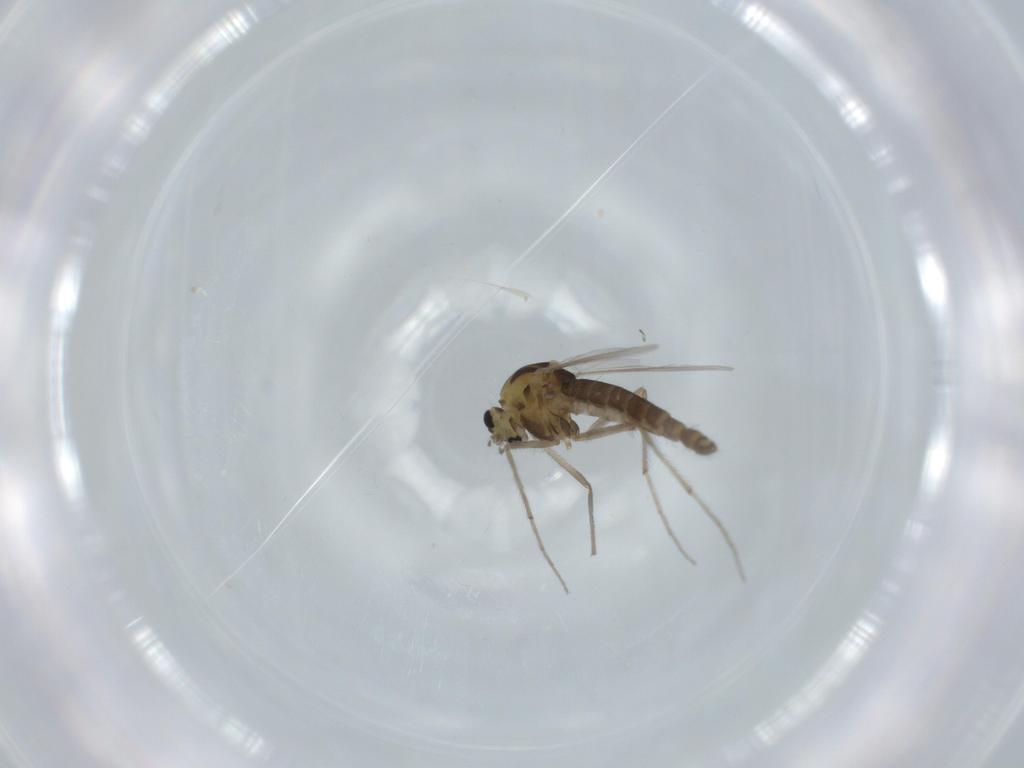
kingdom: Animalia
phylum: Arthropoda
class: Insecta
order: Diptera
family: Chironomidae
